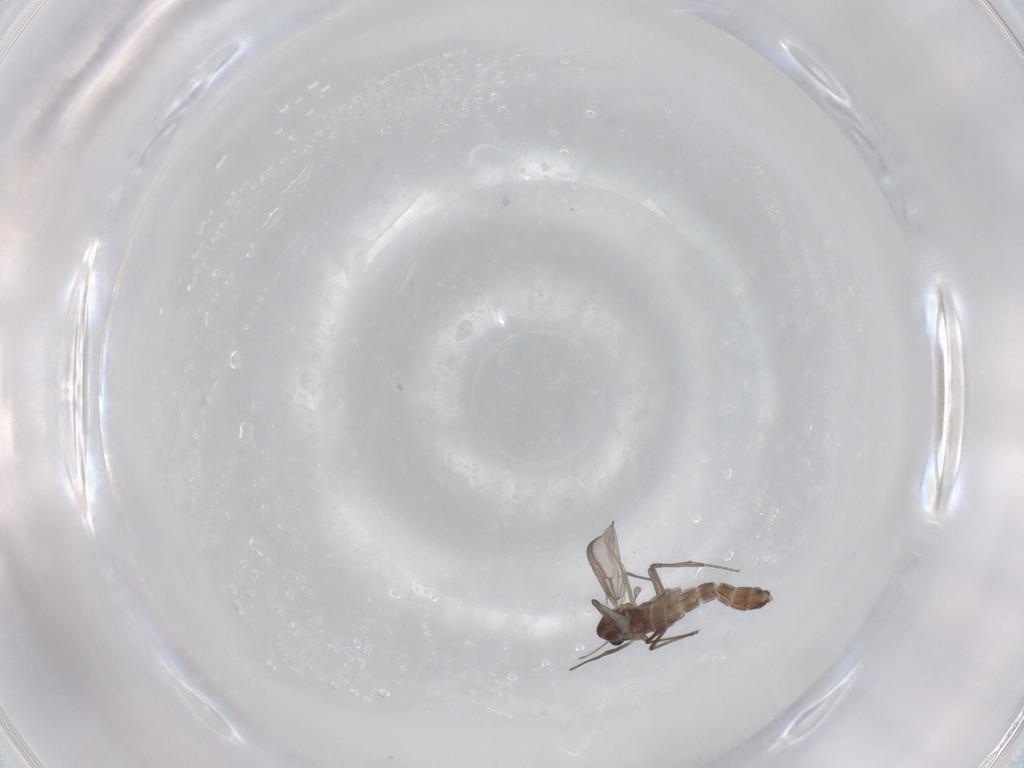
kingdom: Animalia
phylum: Arthropoda
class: Insecta
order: Diptera
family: Chironomidae
